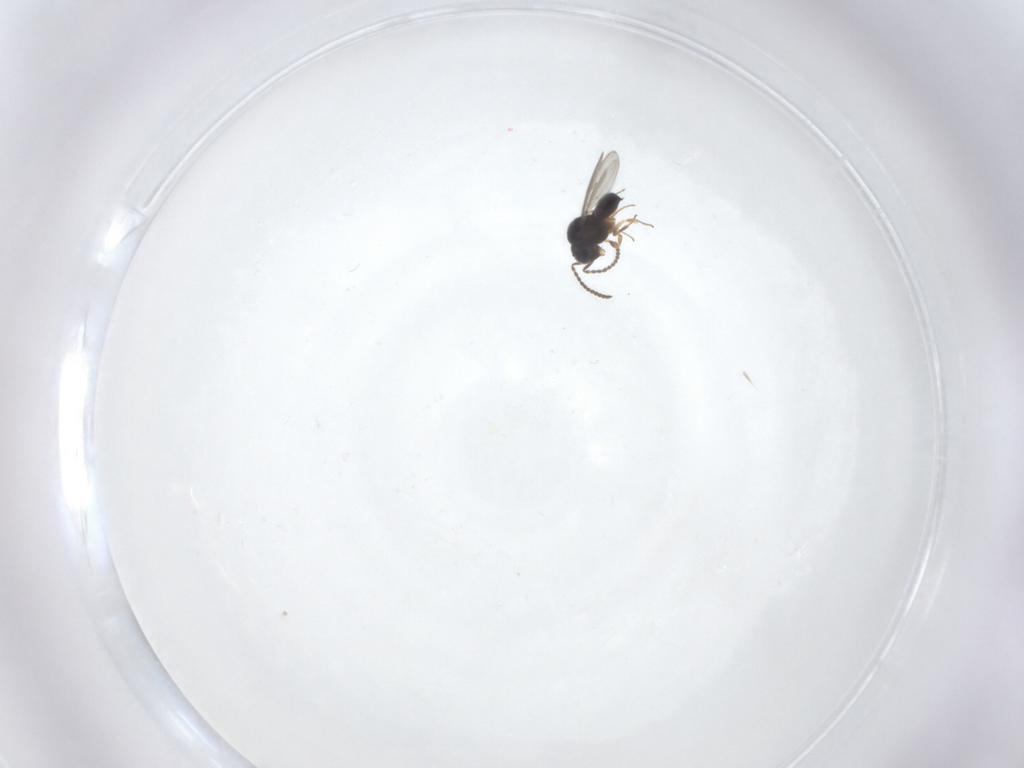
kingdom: Animalia
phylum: Arthropoda
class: Insecta
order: Hymenoptera
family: Scelionidae
